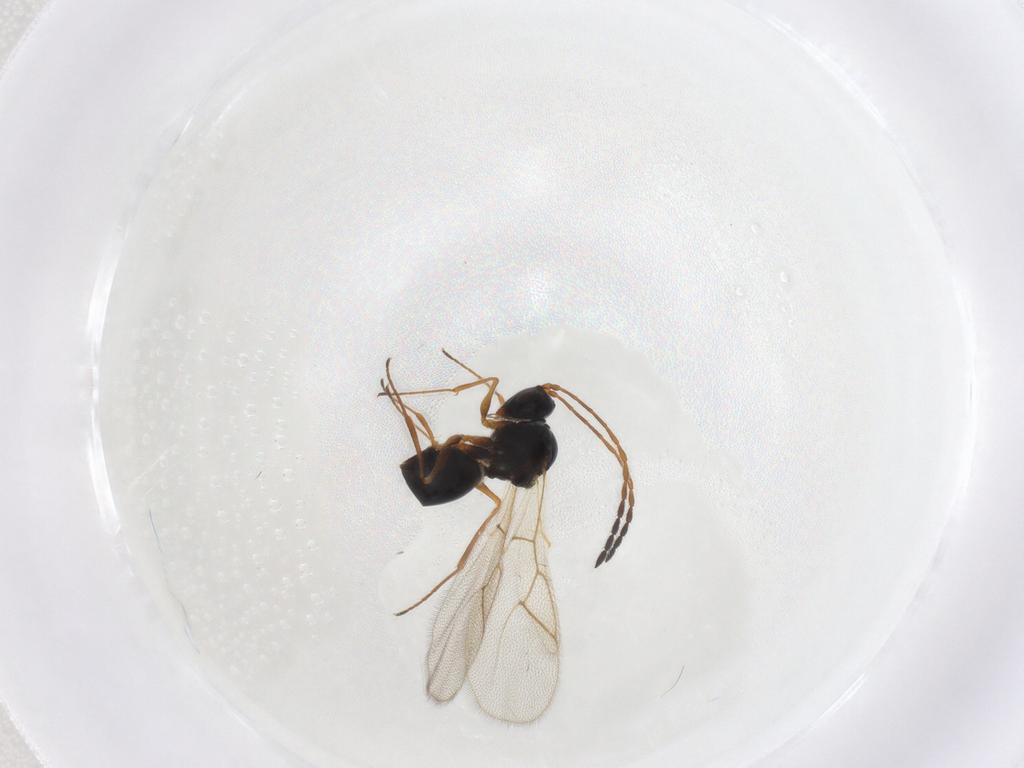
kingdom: Animalia
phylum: Arthropoda
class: Insecta
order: Hymenoptera
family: Figitidae
